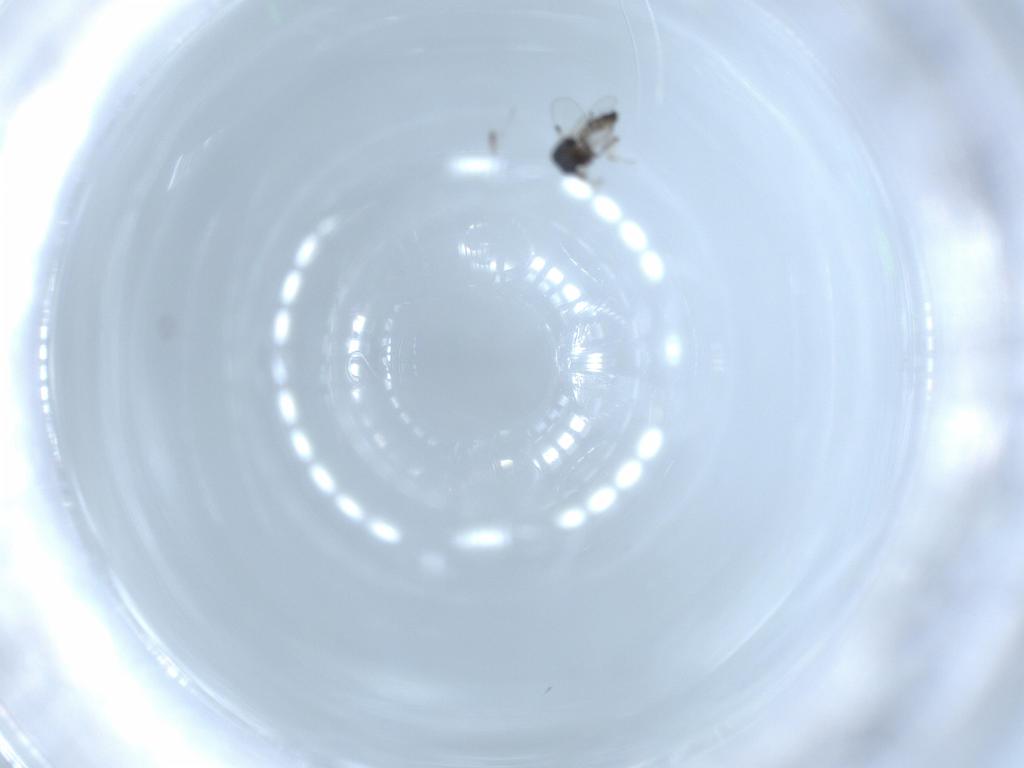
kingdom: Animalia
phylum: Arthropoda
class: Insecta
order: Diptera
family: Ceratopogonidae
